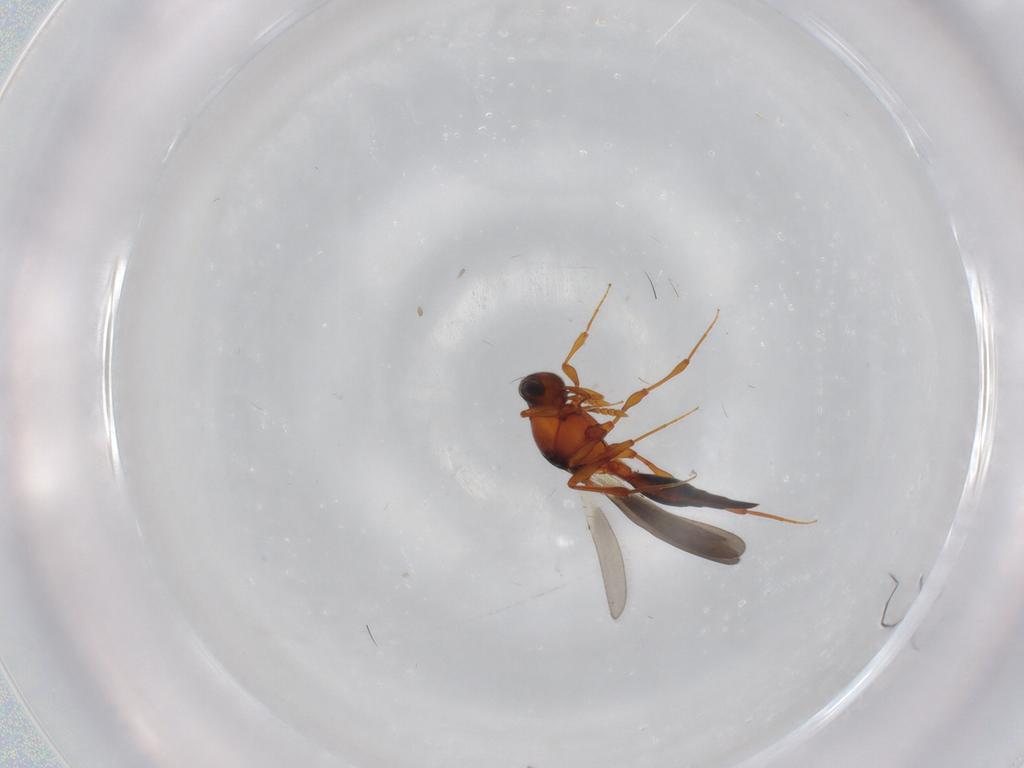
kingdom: Animalia
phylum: Arthropoda
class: Insecta
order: Hymenoptera
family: Platygastridae
